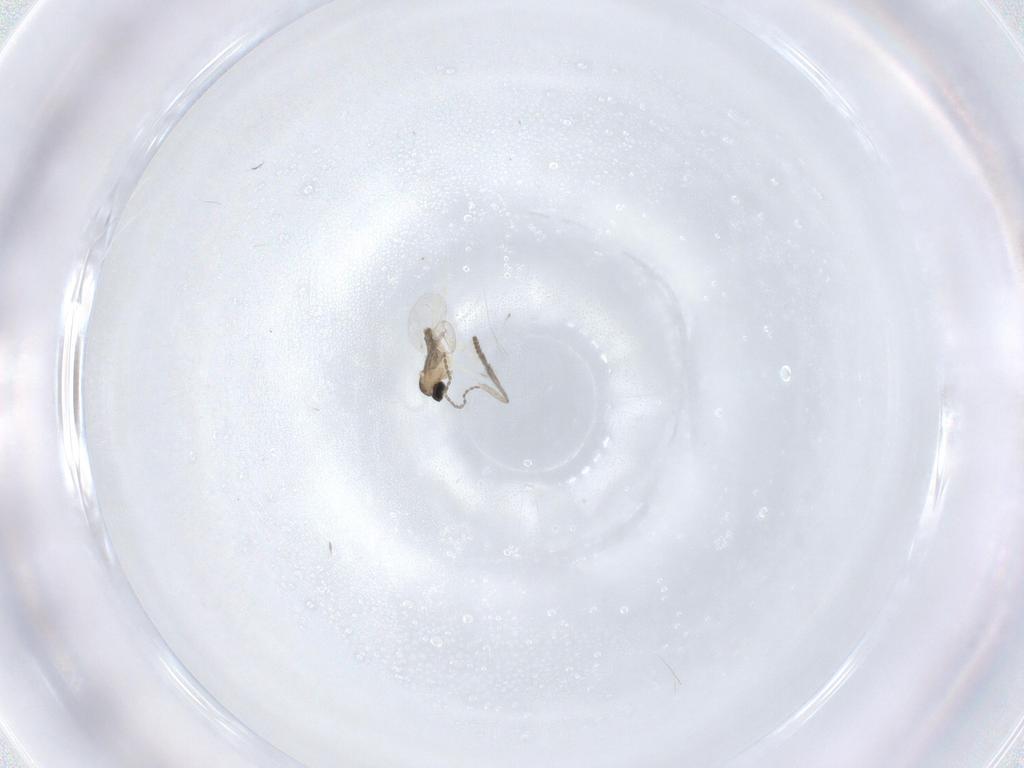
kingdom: Animalia
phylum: Arthropoda
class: Insecta
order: Diptera
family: Psychodidae
